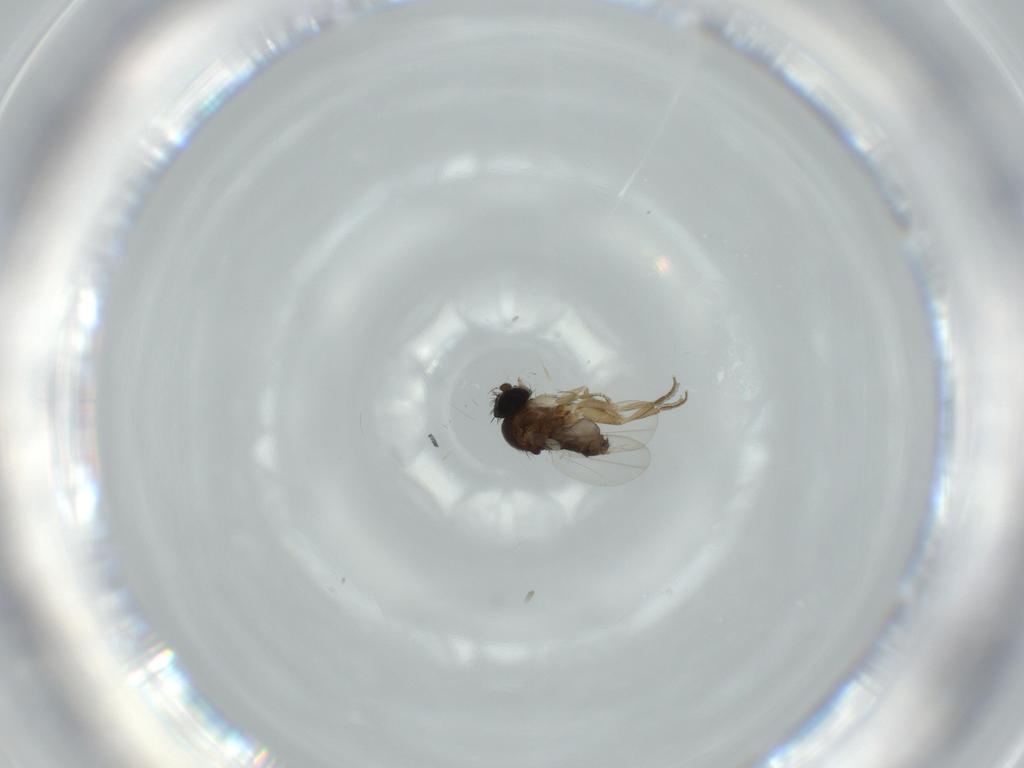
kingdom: Animalia
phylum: Arthropoda
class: Insecta
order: Diptera
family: Phoridae
